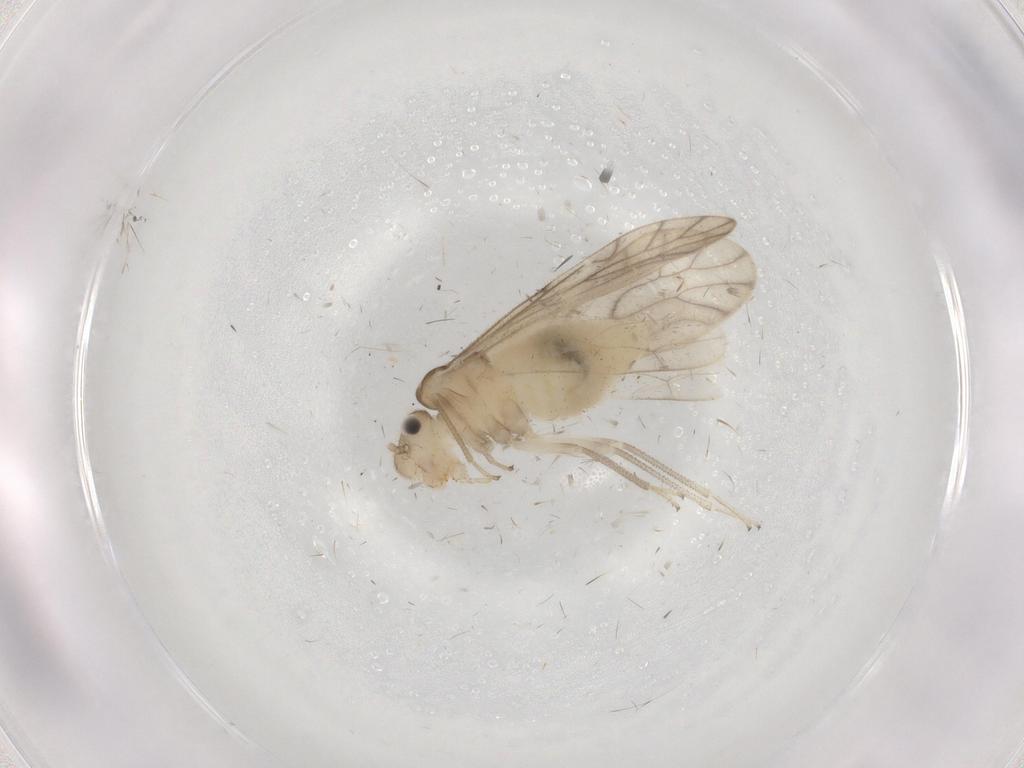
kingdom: Animalia
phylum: Arthropoda
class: Insecta
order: Psocodea
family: Caeciliusidae
